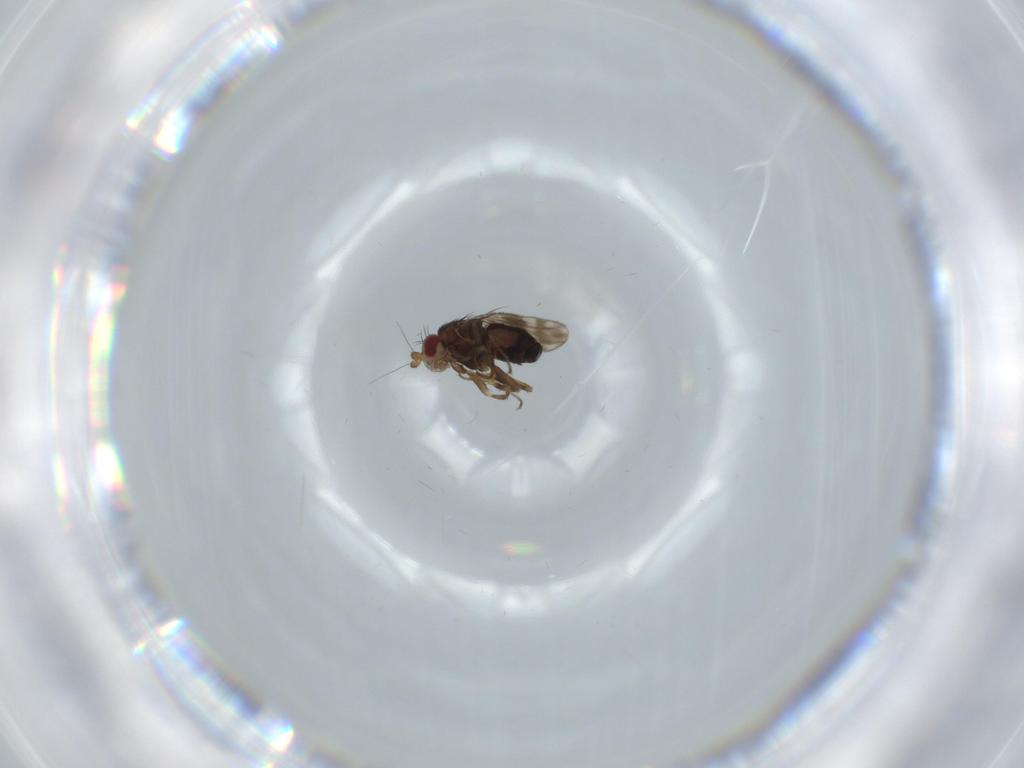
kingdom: Animalia
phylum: Arthropoda
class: Insecta
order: Diptera
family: Sphaeroceridae
